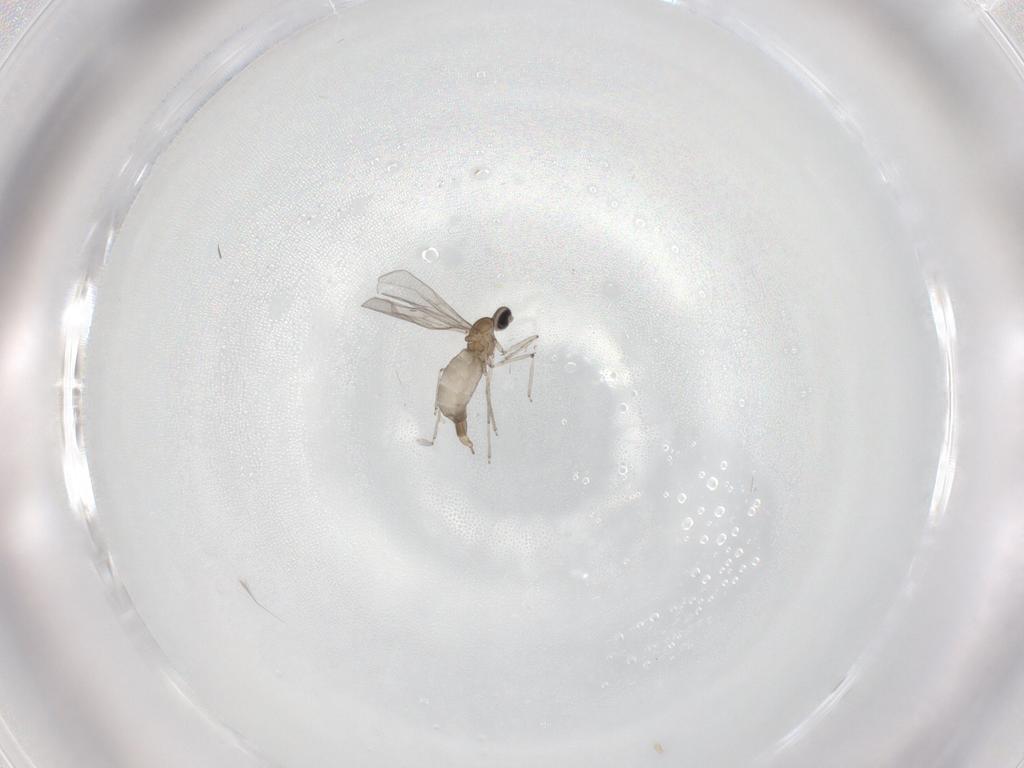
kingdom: Animalia
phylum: Arthropoda
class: Insecta
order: Diptera
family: Cecidomyiidae
